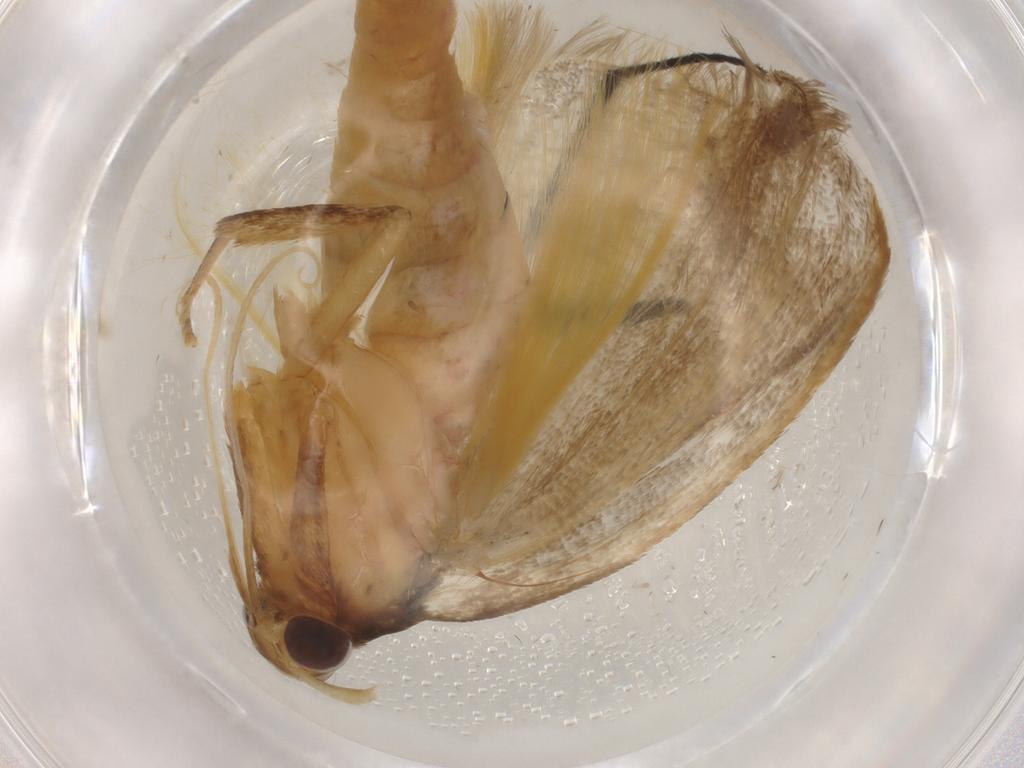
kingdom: Animalia
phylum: Arthropoda
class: Insecta
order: Lepidoptera
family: Lecithoceridae
